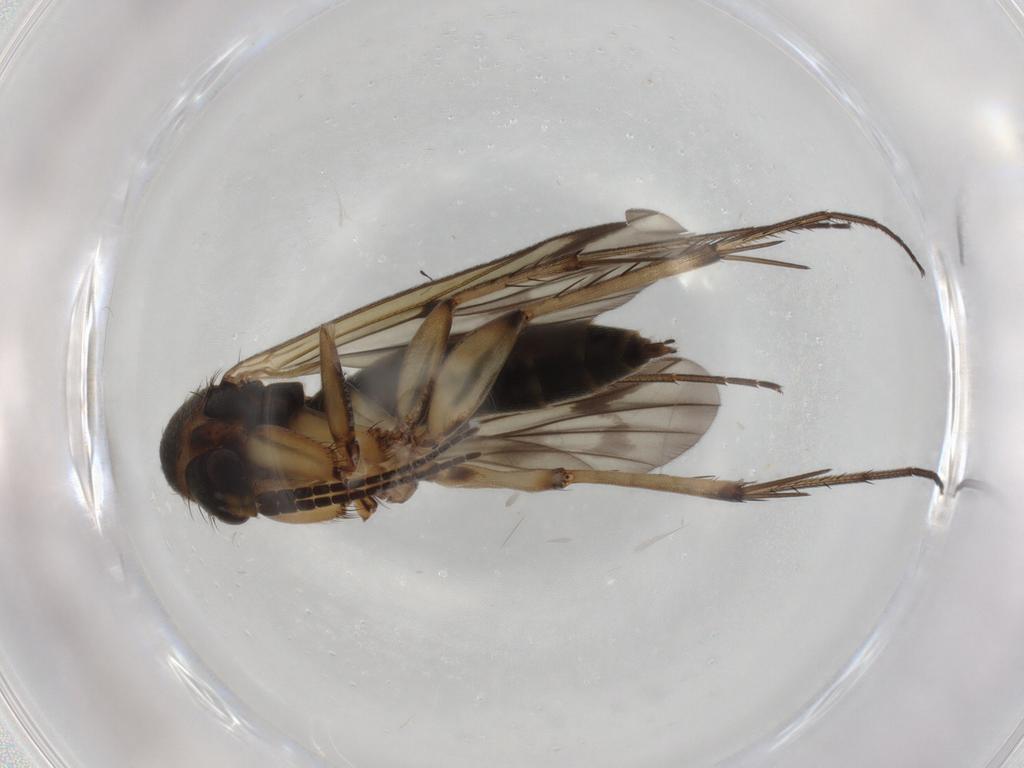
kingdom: Animalia
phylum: Arthropoda
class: Insecta
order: Diptera
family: Mycetophilidae
